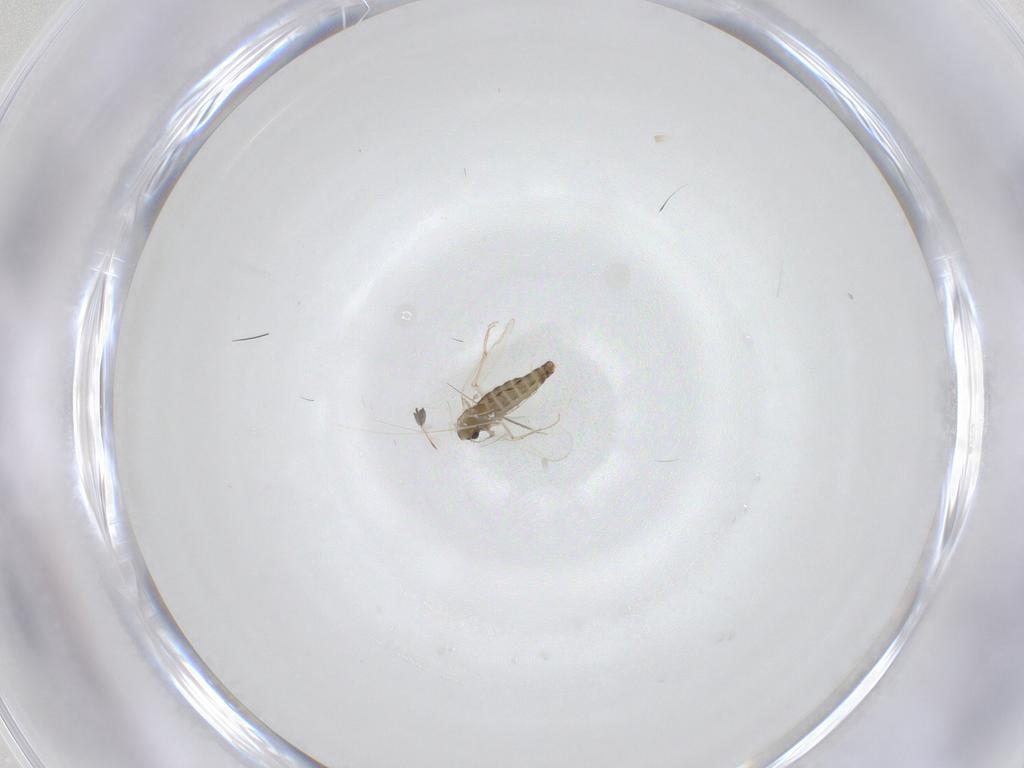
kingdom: Animalia
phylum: Arthropoda
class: Insecta
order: Diptera
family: Chironomidae
